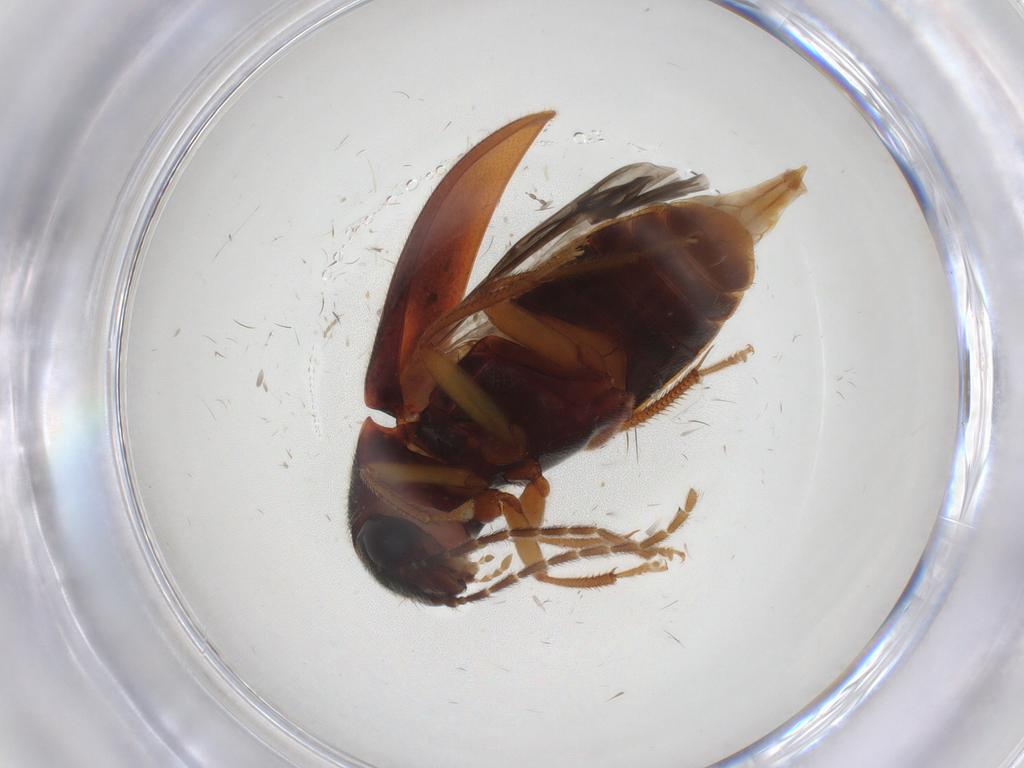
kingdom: Animalia
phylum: Arthropoda
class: Insecta
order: Coleoptera
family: Ptilodactylidae
